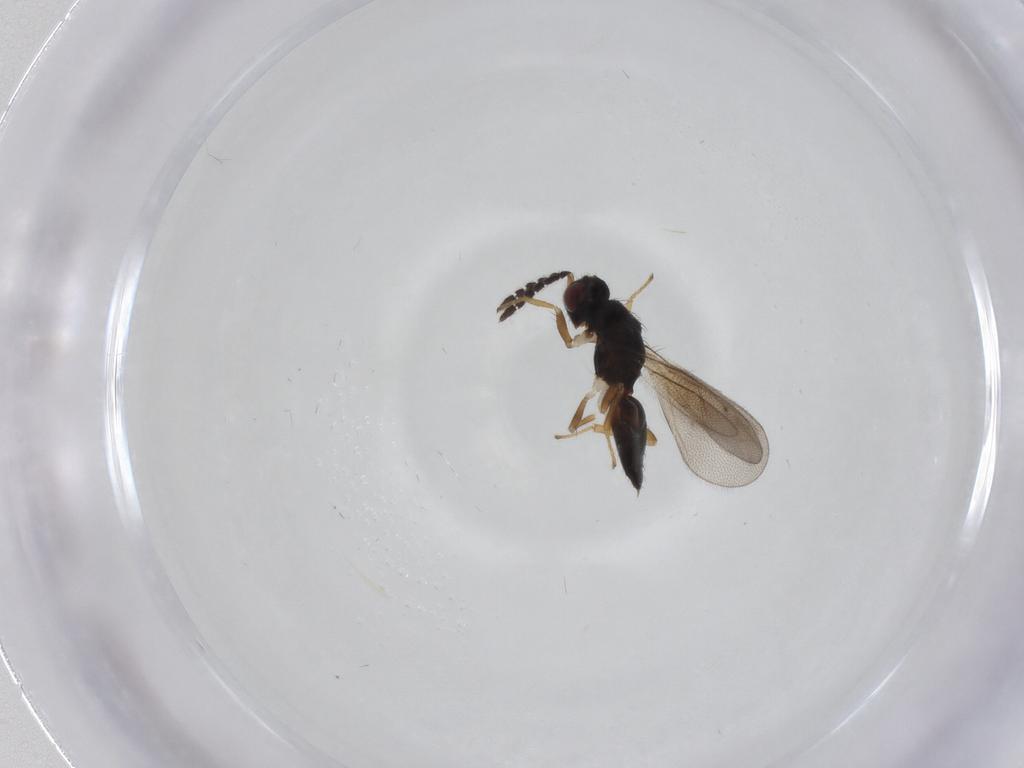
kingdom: Animalia
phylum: Arthropoda
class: Insecta
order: Hymenoptera
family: Eulophidae
